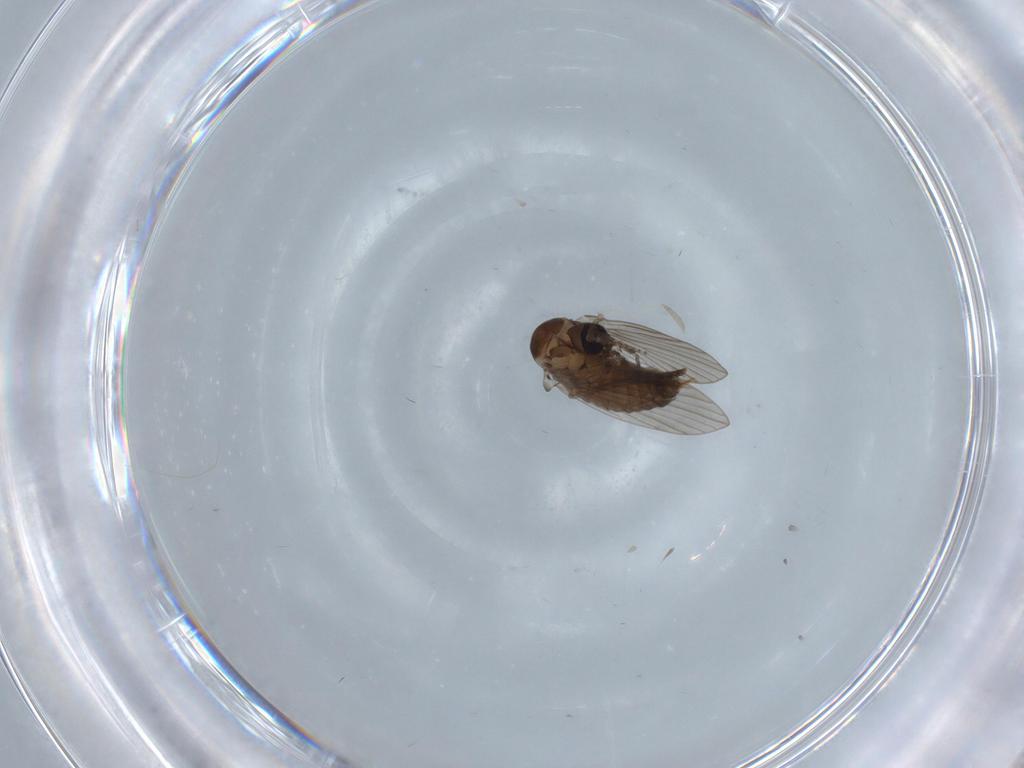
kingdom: Animalia
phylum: Arthropoda
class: Insecta
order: Diptera
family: Psychodidae
